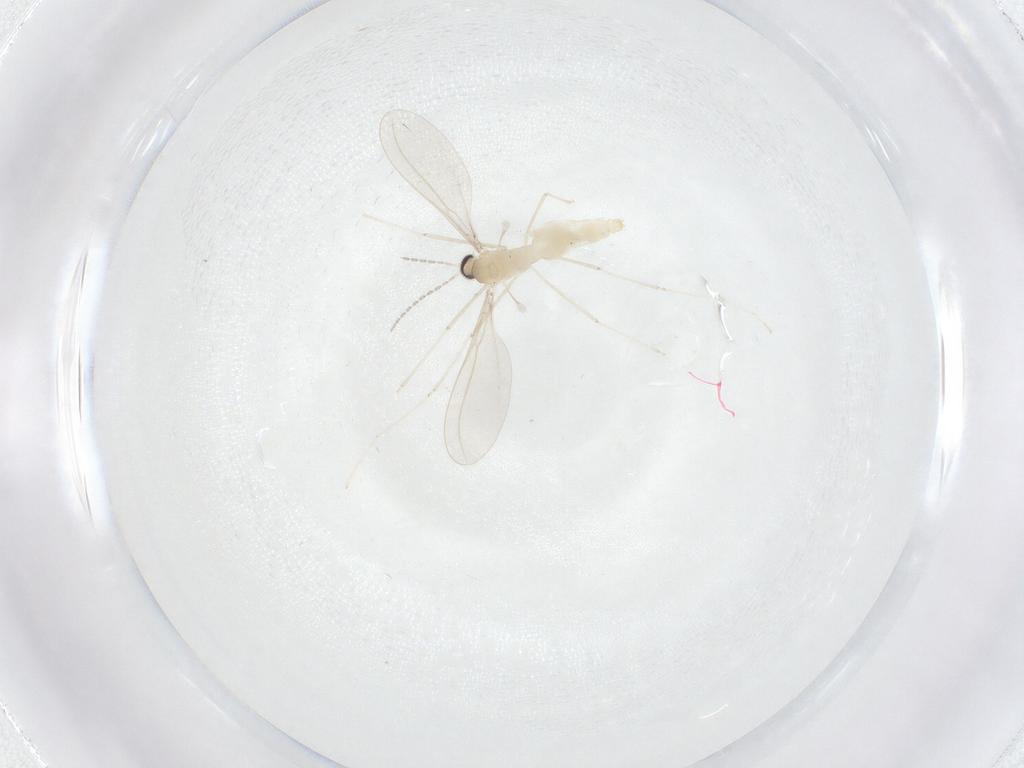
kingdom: Animalia
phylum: Arthropoda
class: Insecta
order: Diptera
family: Cecidomyiidae
